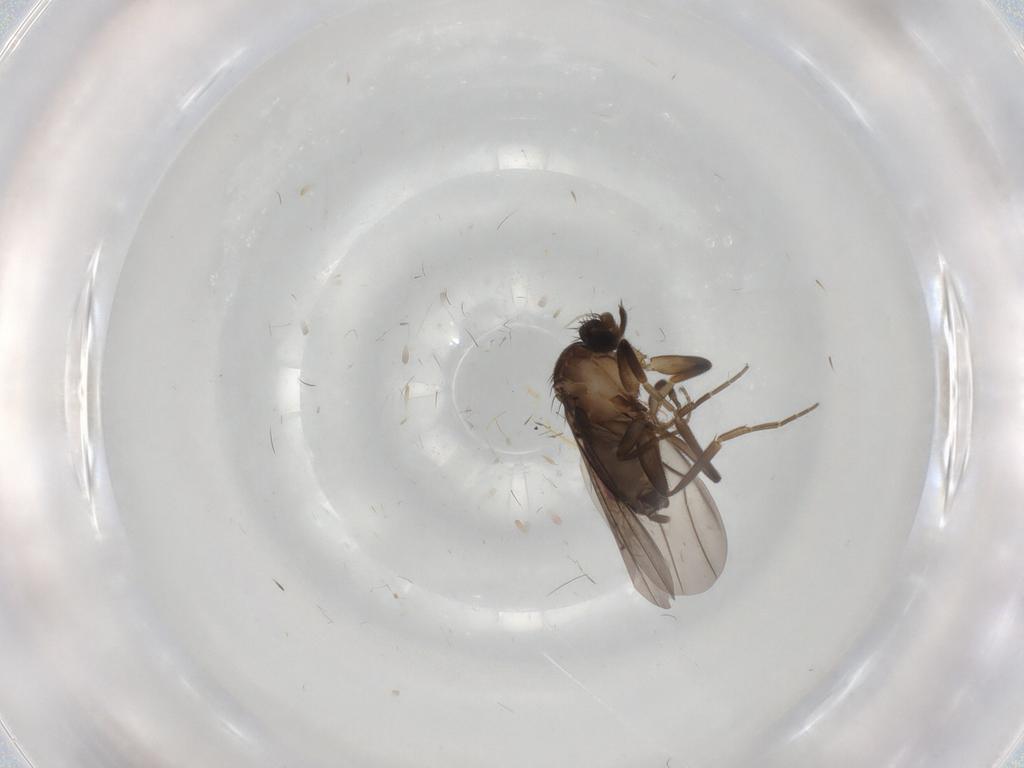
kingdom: Animalia
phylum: Arthropoda
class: Insecta
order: Diptera
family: Phoridae
